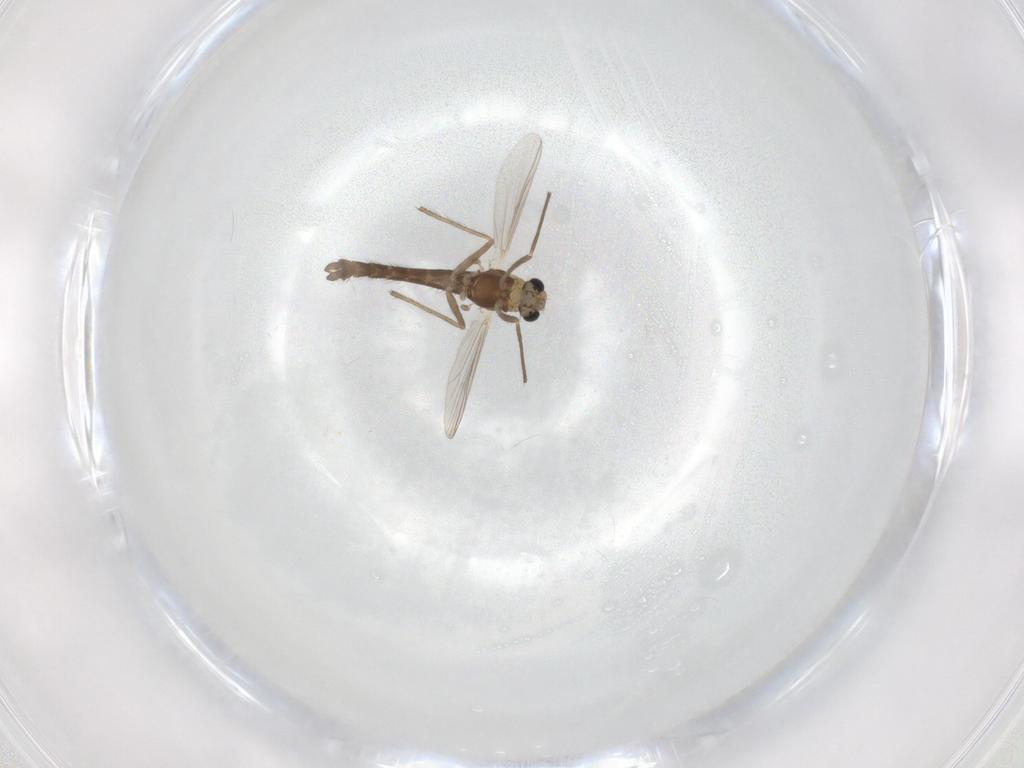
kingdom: Animalia
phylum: Arthropoda
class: Insecta
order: Diptera
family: Chironomidae
